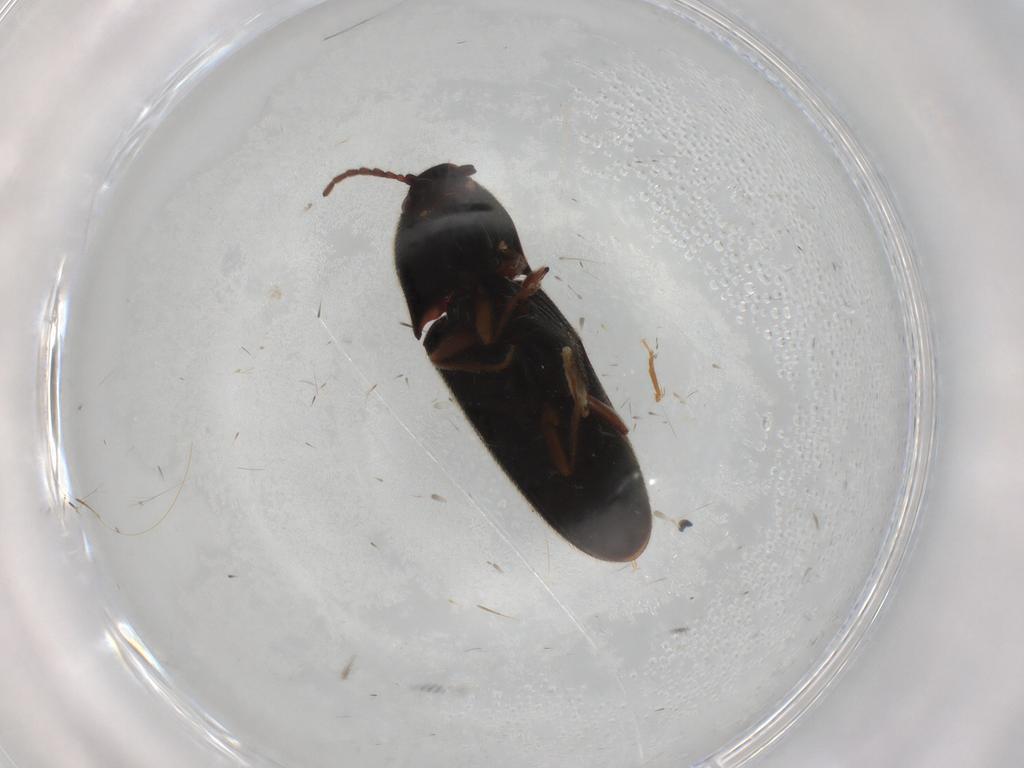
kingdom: Animalia
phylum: Arthropoda
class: Insecta
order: Coleoptera
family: Elateridae
